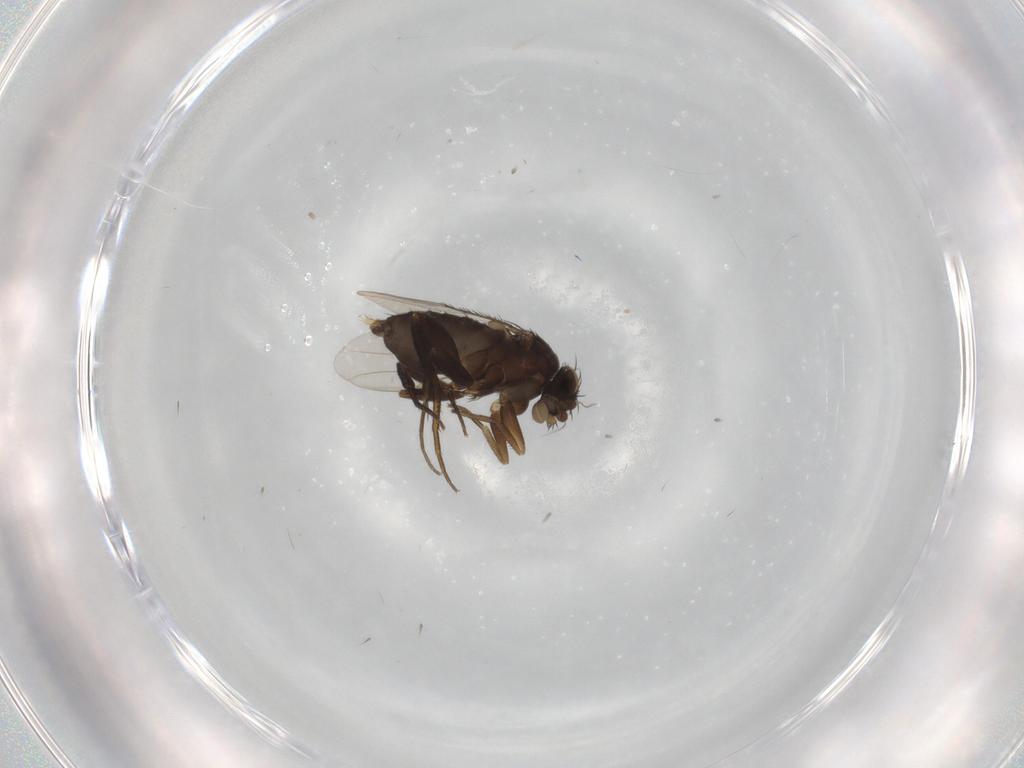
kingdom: Animalia
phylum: Arthropoda
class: Insecta
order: Diptera
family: Phoridae
